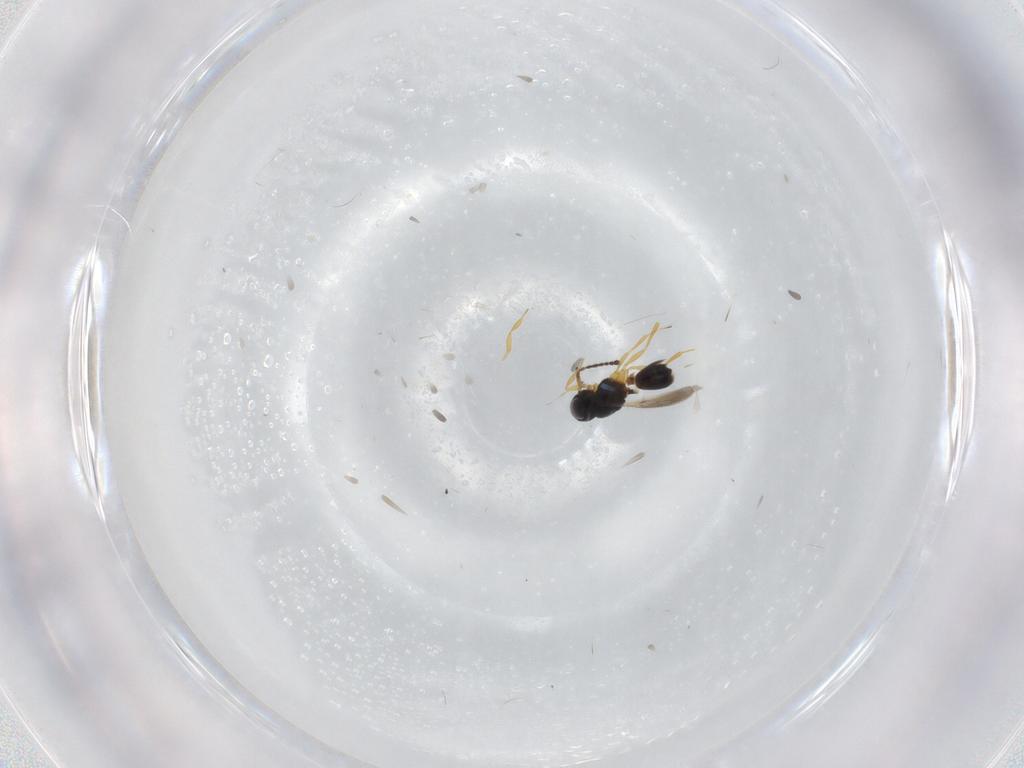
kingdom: Animalia
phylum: Arthropoda
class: Insecta
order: Hymenoptera
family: Scelionidae
